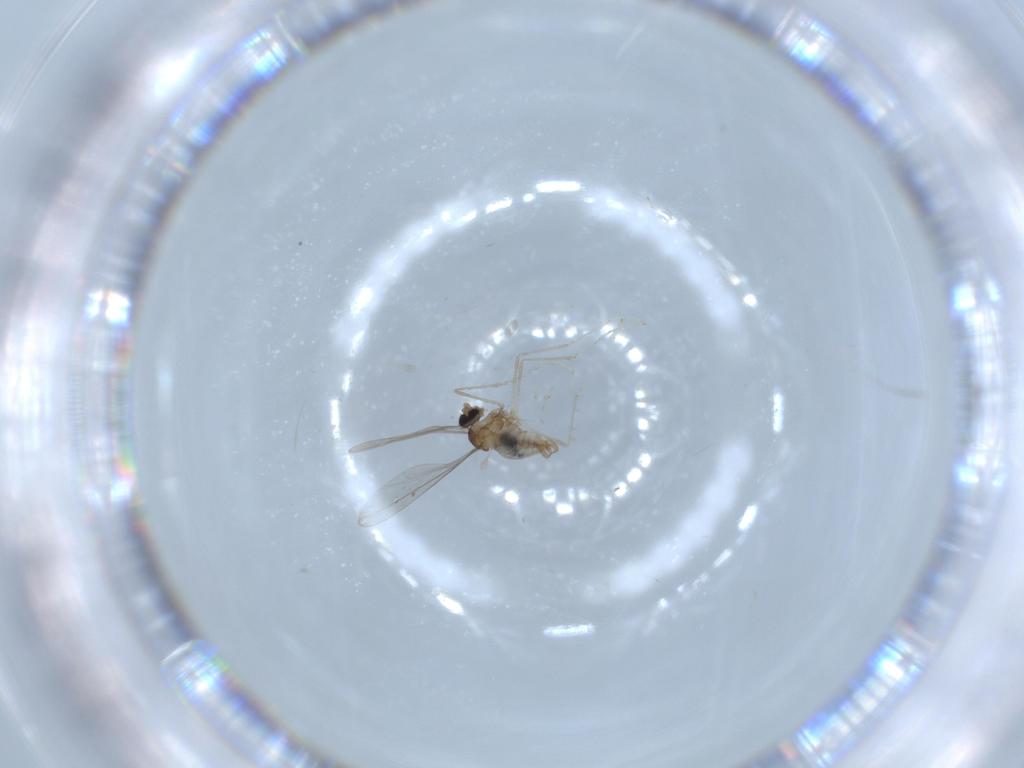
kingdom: Animalia
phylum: Arthropoda
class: Insecta
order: Diptera
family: Cecidomyiidae
